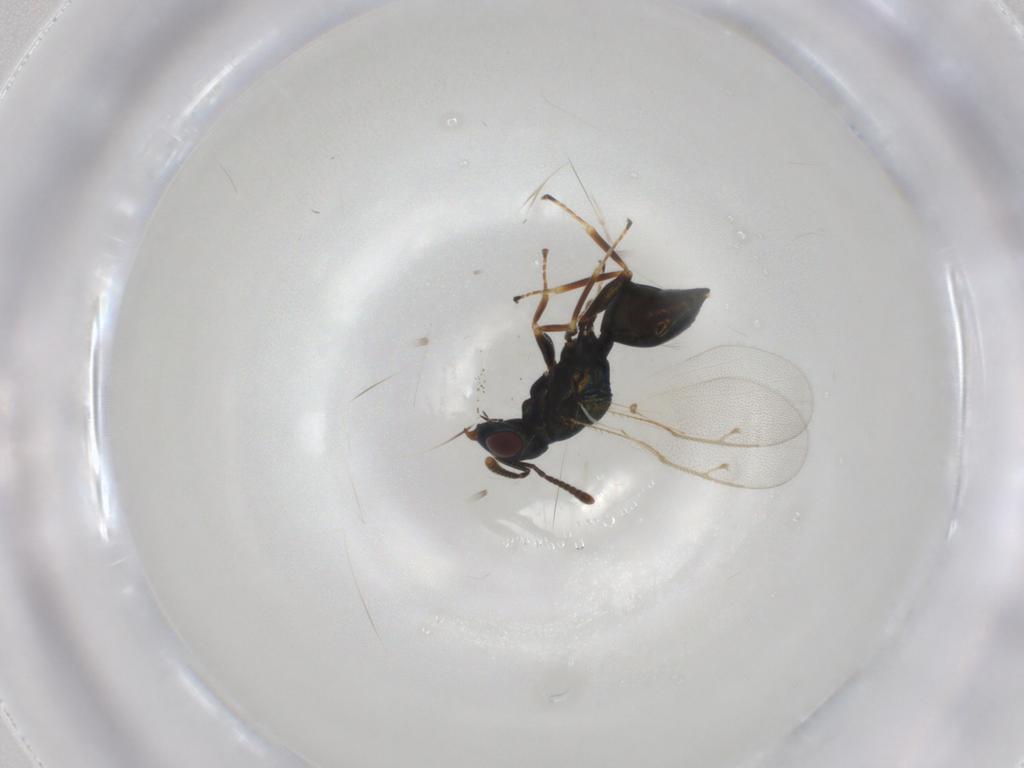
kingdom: Animalia
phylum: Arthropoda
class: Insecta
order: Hymenoptera
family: Pteromalidae
